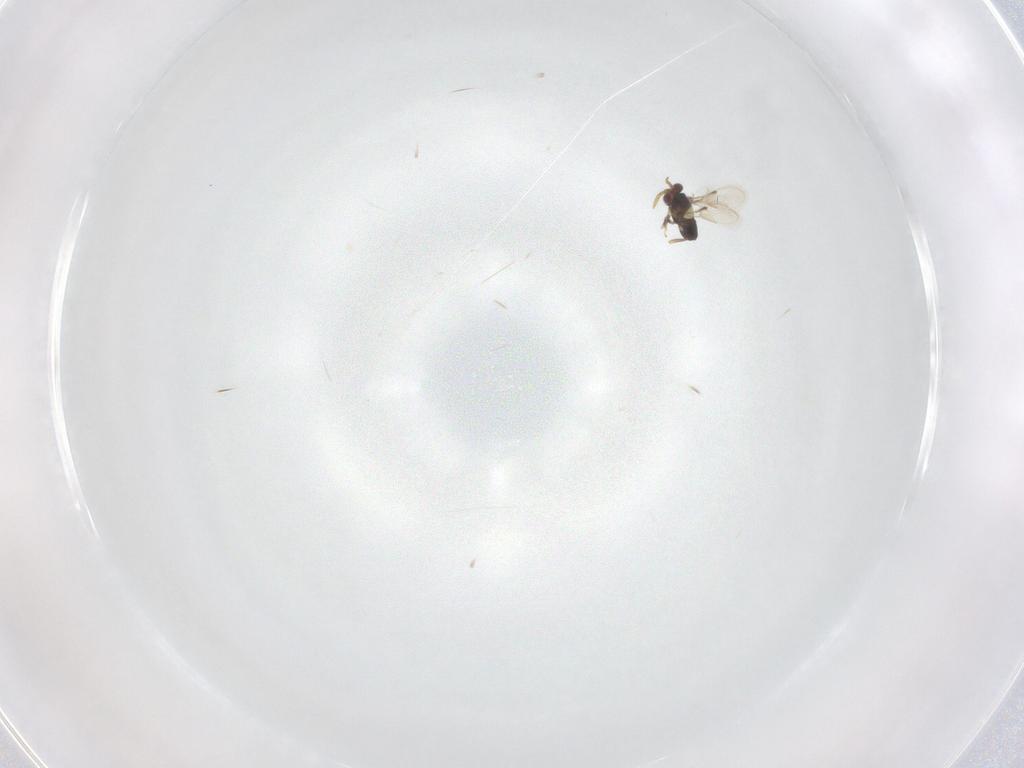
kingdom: Animalia
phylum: Arthropoda
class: Insecta
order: Hymenoptera
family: Aphelinidae
